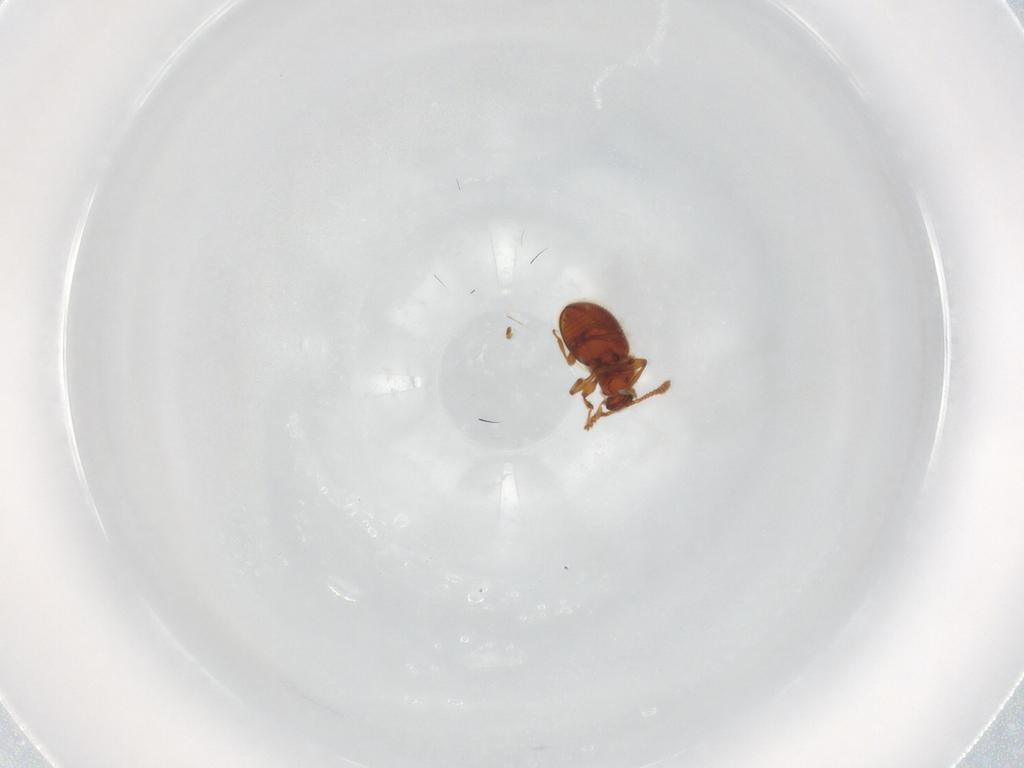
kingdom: Animalia
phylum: Arthropoda
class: Insecta
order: Coleoptera
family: Staphylinidae
